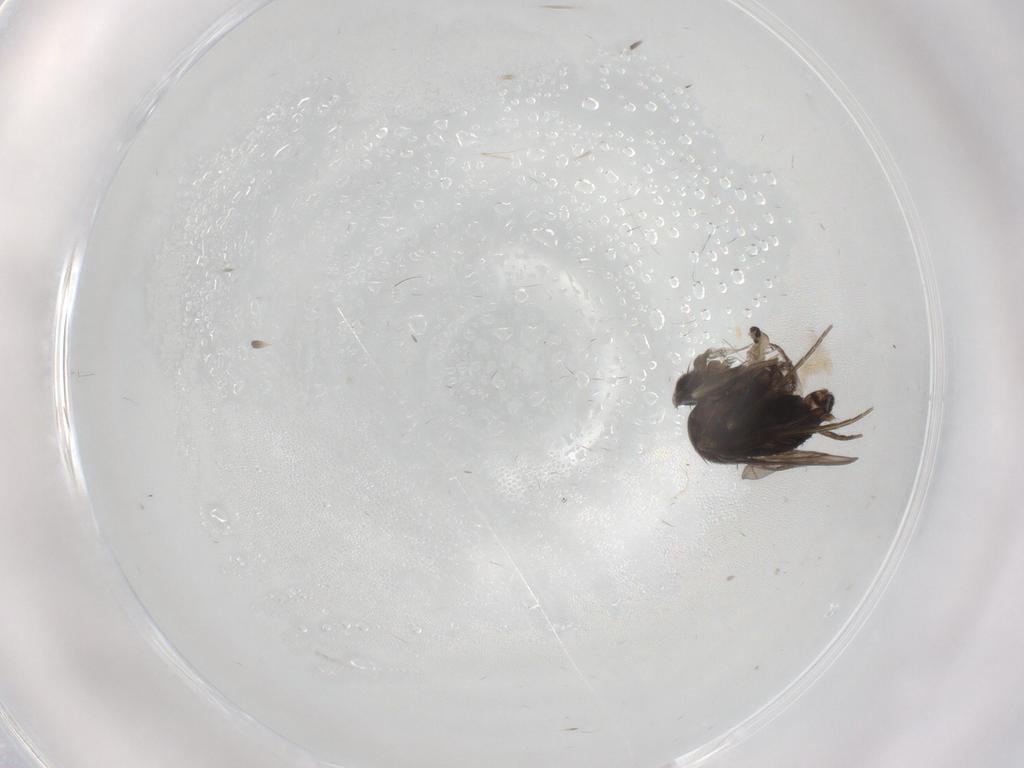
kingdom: Animalia
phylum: Arthropoda
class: Insecta
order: Diptera
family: Phoridae
